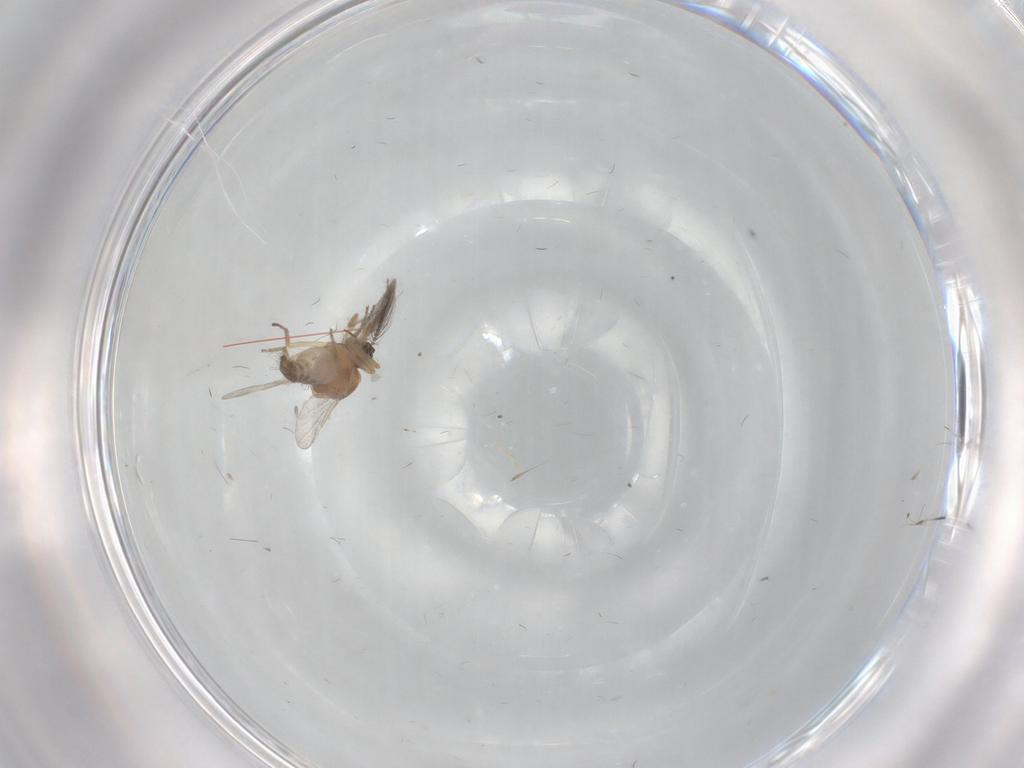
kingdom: Animalia
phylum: Arthropoda
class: Insecta
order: Diptera
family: Ceratopogonidae
